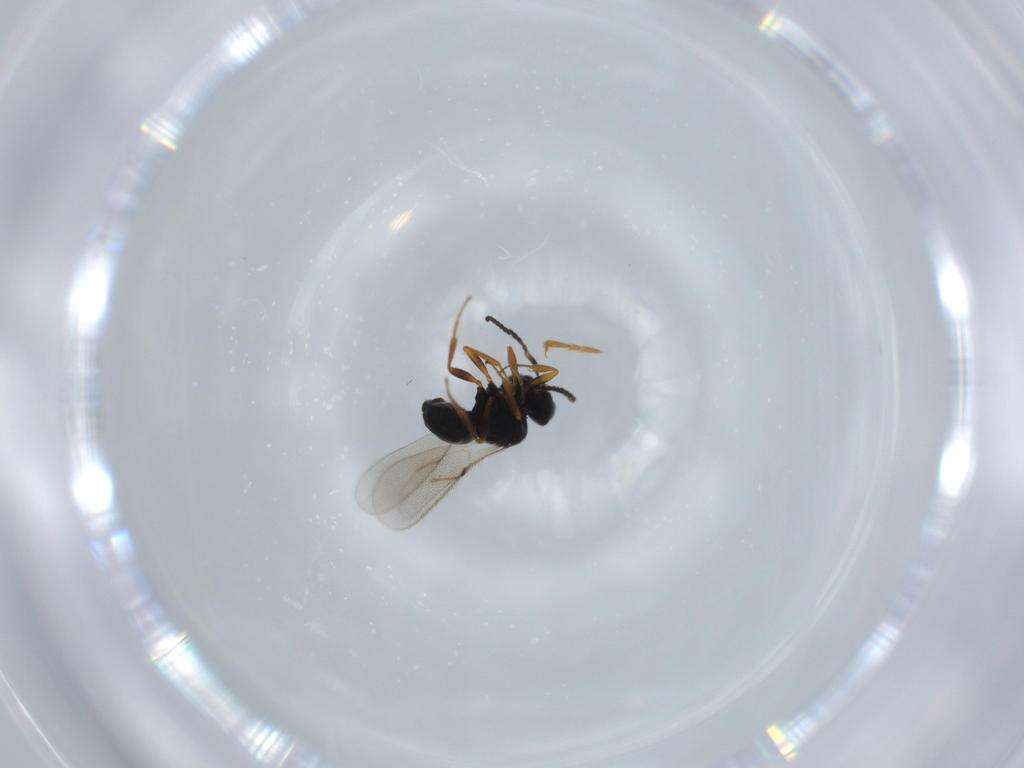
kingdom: Animalia
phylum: Arthropoda
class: Insecta
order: Hymenoptera
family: Scelionidae
